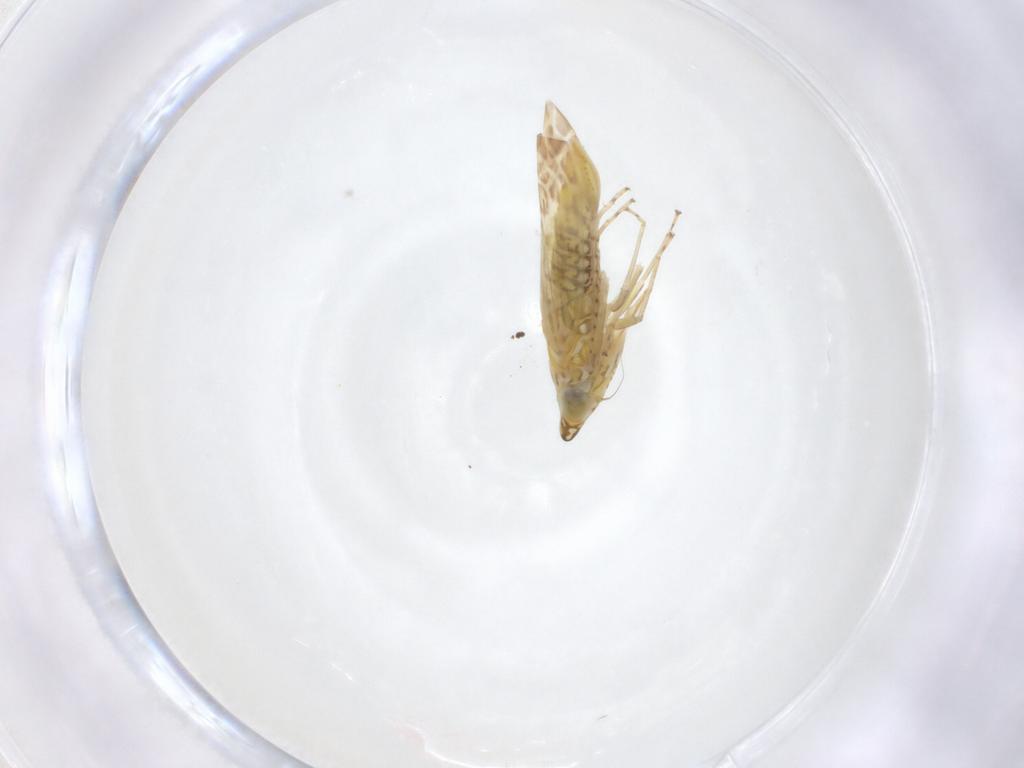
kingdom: Animalia
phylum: Arthropoda
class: Insecta
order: Hemiptera
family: Cicadellidae
